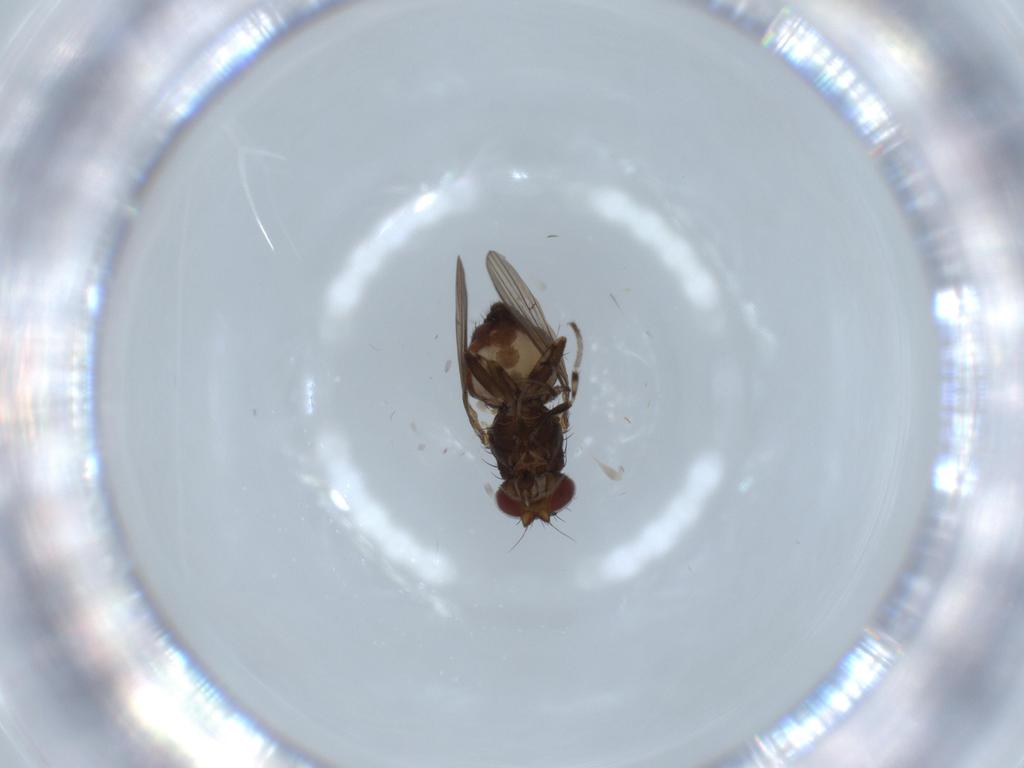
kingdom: Animalia
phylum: Arthropoda
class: Insecta
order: Diptera
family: Heleomyzidae
